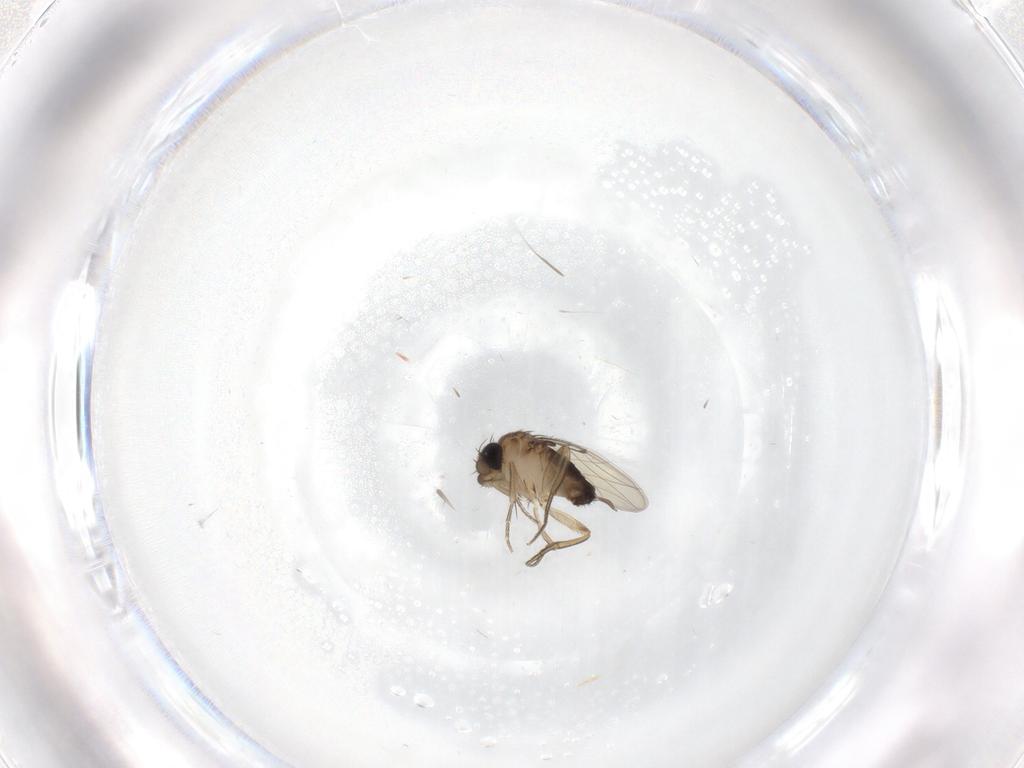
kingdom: Animalia
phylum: Arthropoda
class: Insecta
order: Diptera
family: Phoridae
